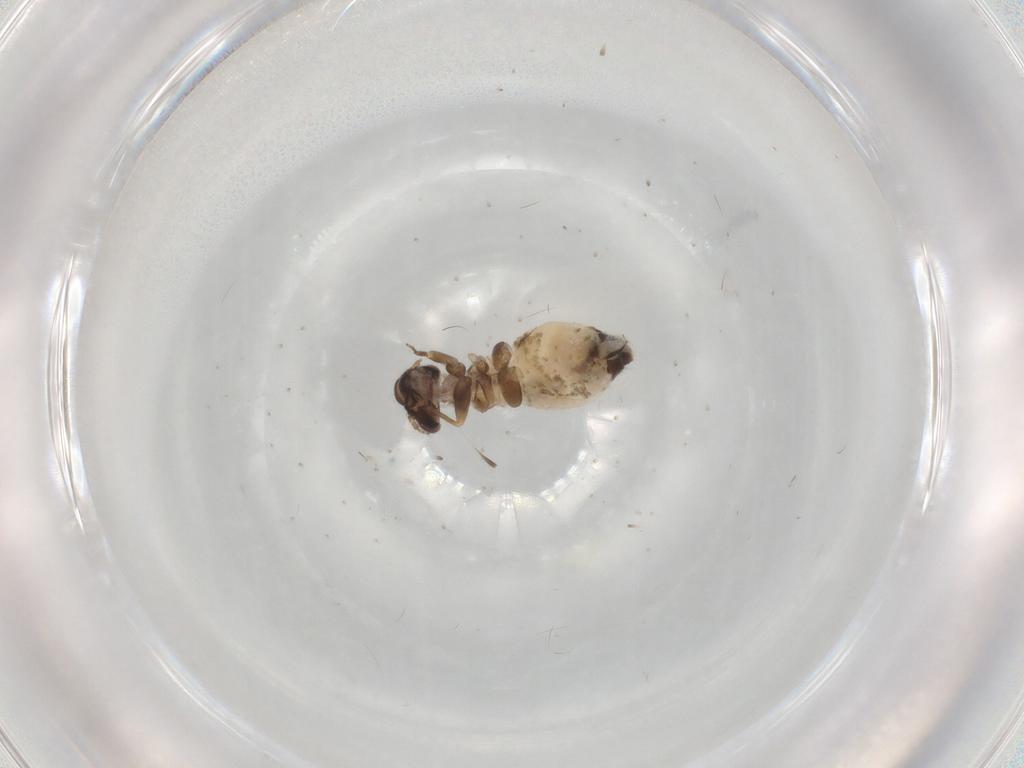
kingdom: Animalia
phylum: Arthropoda
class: Insecta
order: Psocodea
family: Lepidopsocidae
